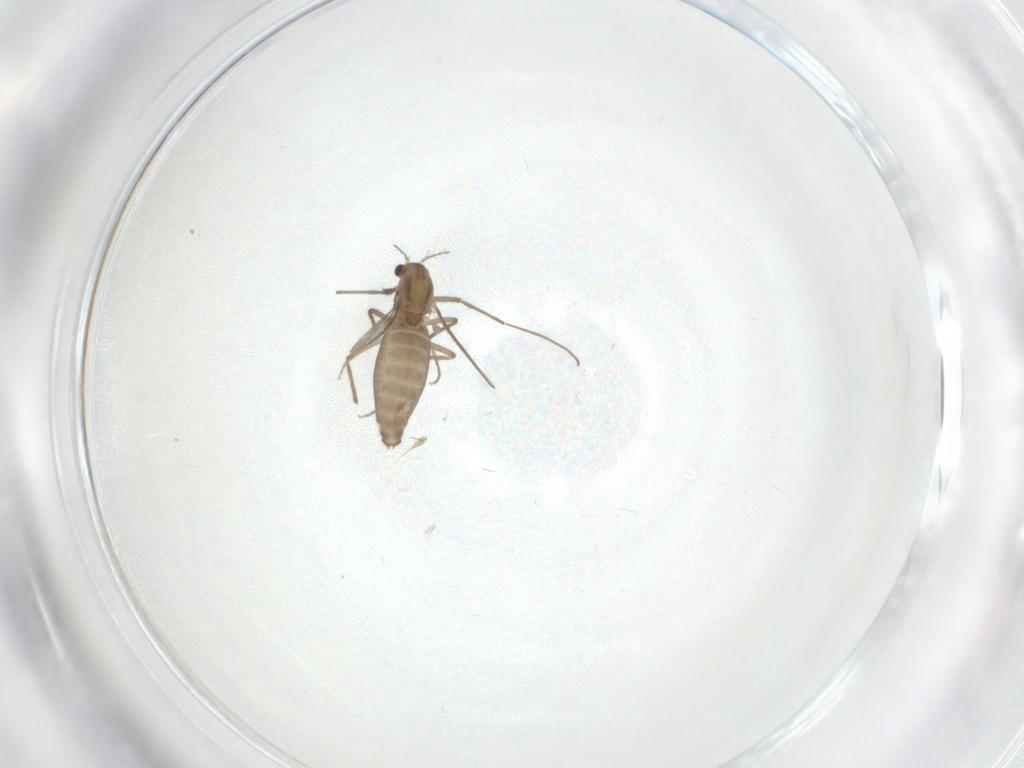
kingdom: Animalia
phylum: Arthropoda
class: Insecta
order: Diptera
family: Chironomidae
